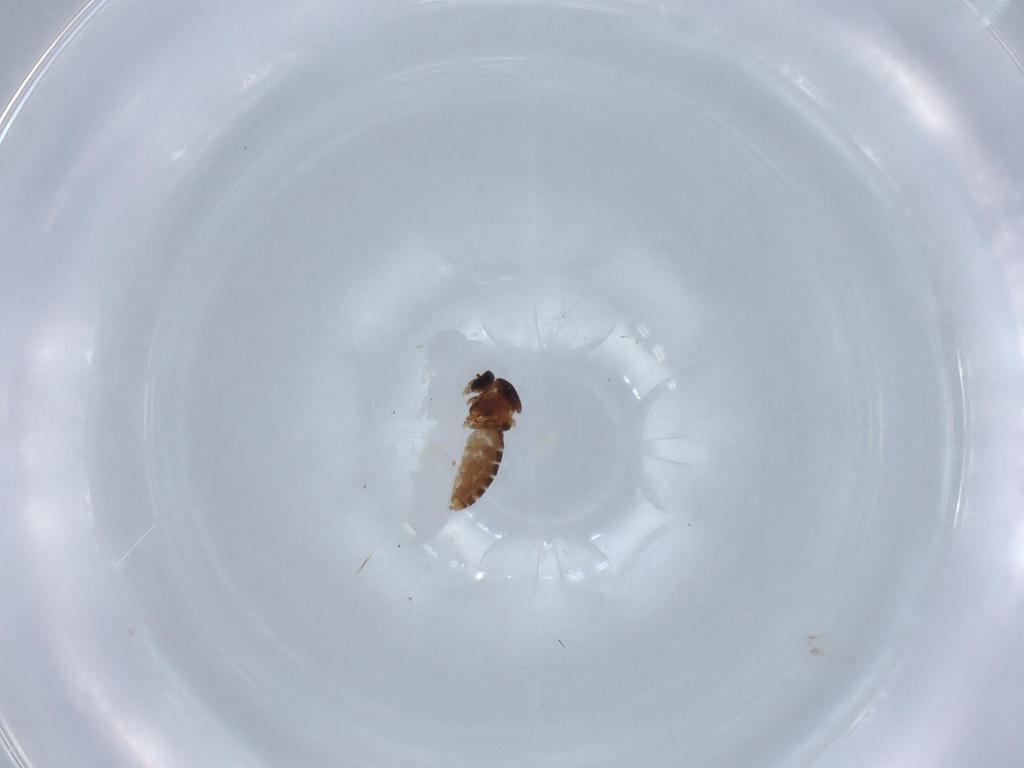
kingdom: Animalia
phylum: Arthropoda
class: Insecta
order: Diptera
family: Ceratopogonidae
